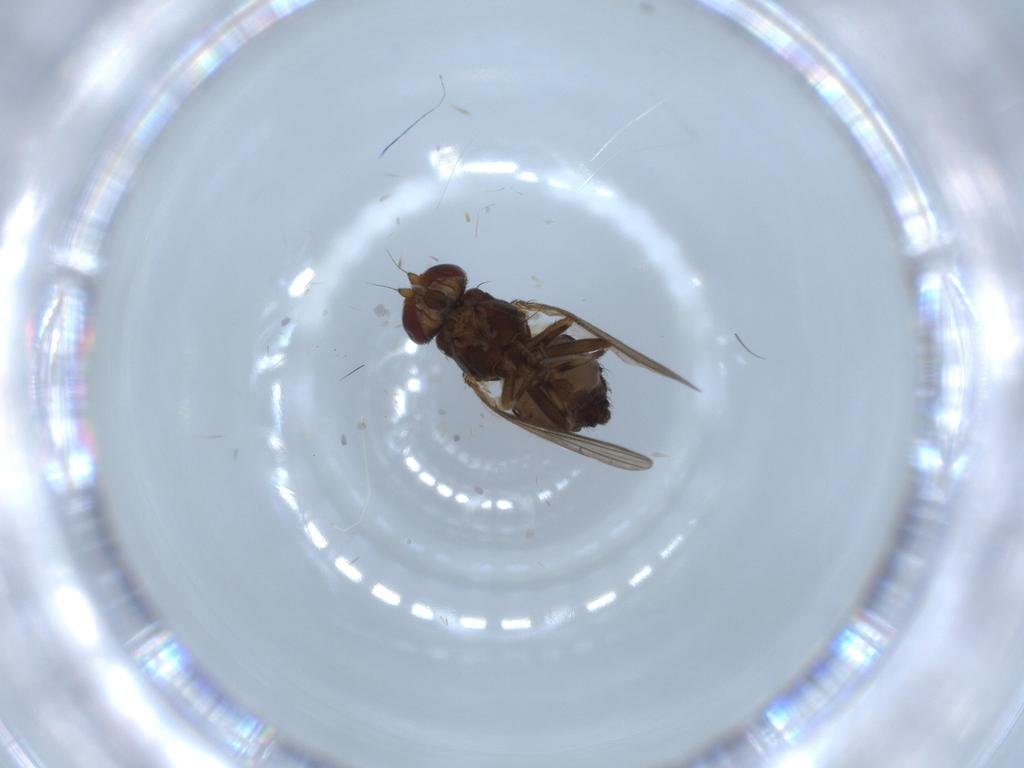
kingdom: Animalia
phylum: Arthropoda
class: Insecta
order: Diptera
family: Heleomyzidae
